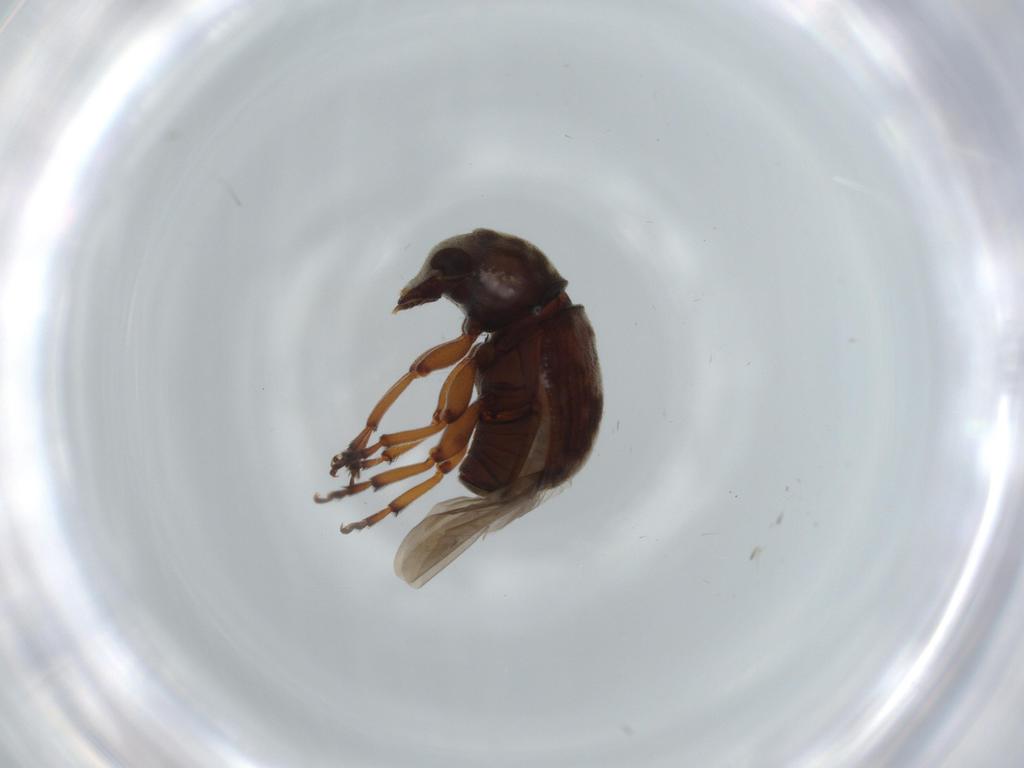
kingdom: Animalia
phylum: Arthropoda
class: Insecta
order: Coleoptera
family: Anthribidae
